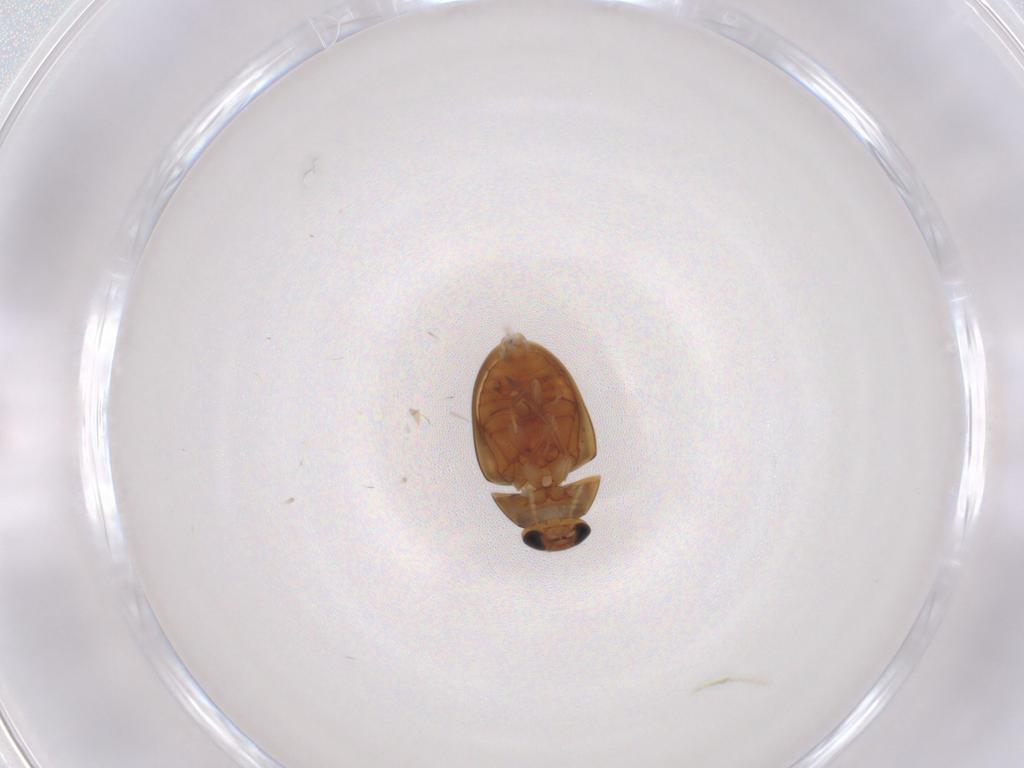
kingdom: Animalia
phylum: Arthropoda
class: Insecta
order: Coleoptera
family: Phalacridae
